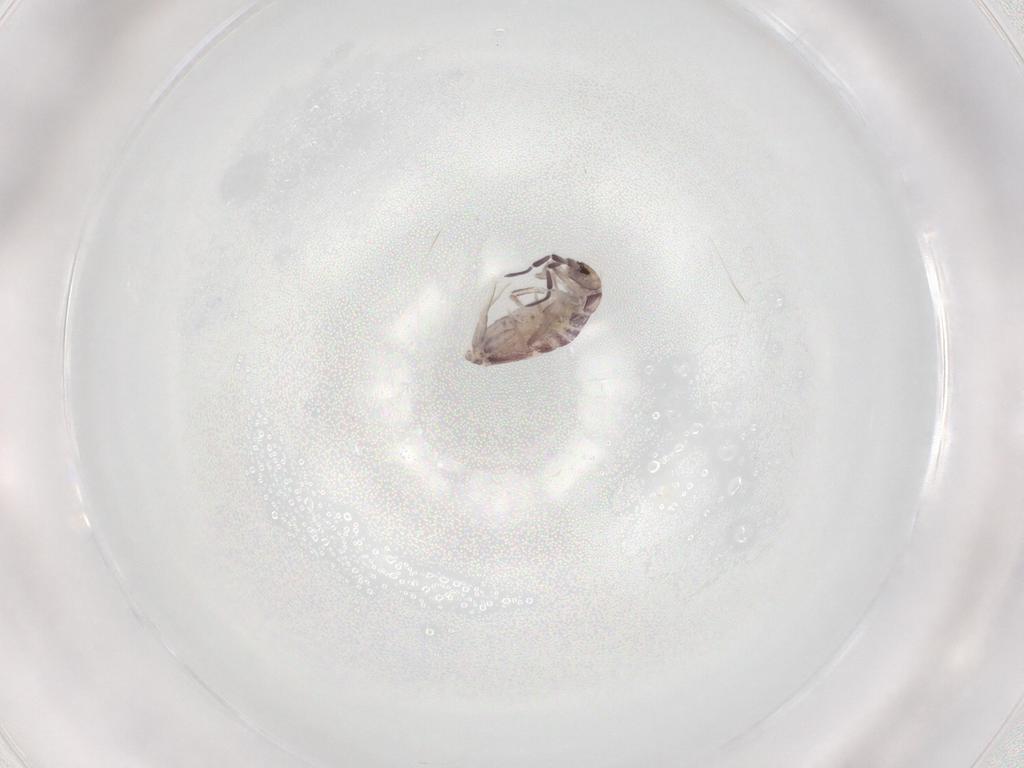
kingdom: Animalia
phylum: Arthropoda
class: Collembola
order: Poduromorpha
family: Hypogastruridae
